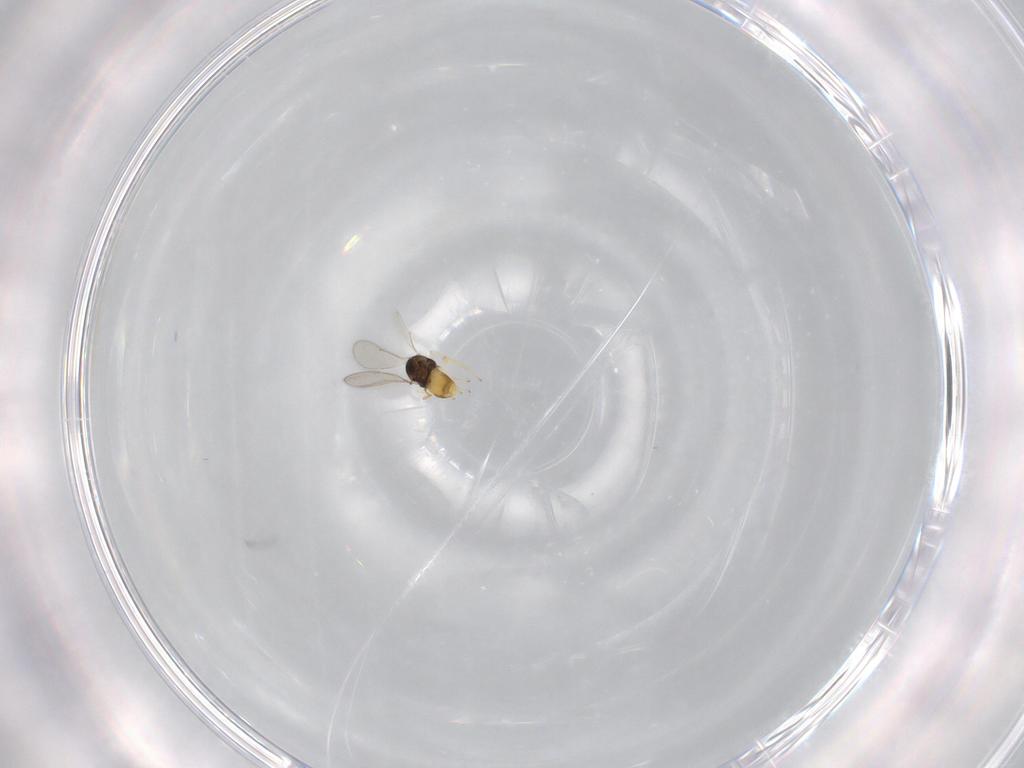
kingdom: Animalia
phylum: Arthropoda
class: Insecta
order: Hymenoptera
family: Aphelinidae
